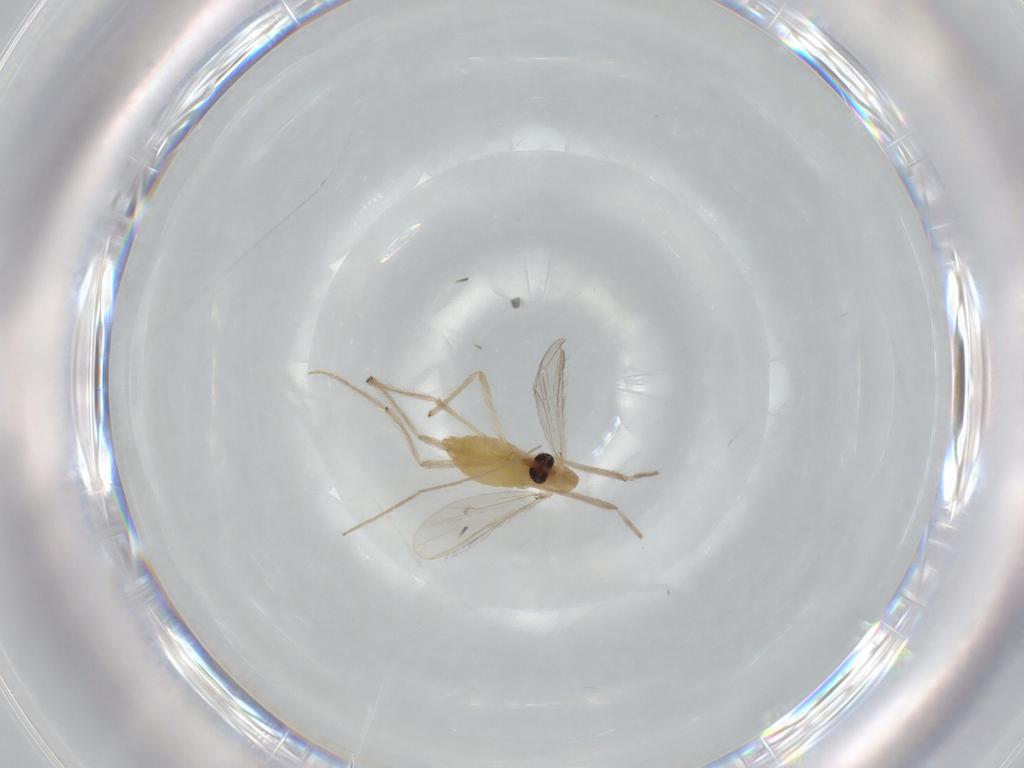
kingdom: Animalia
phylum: Arthropoda
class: Insecta
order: Diptera
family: Chironomidae
